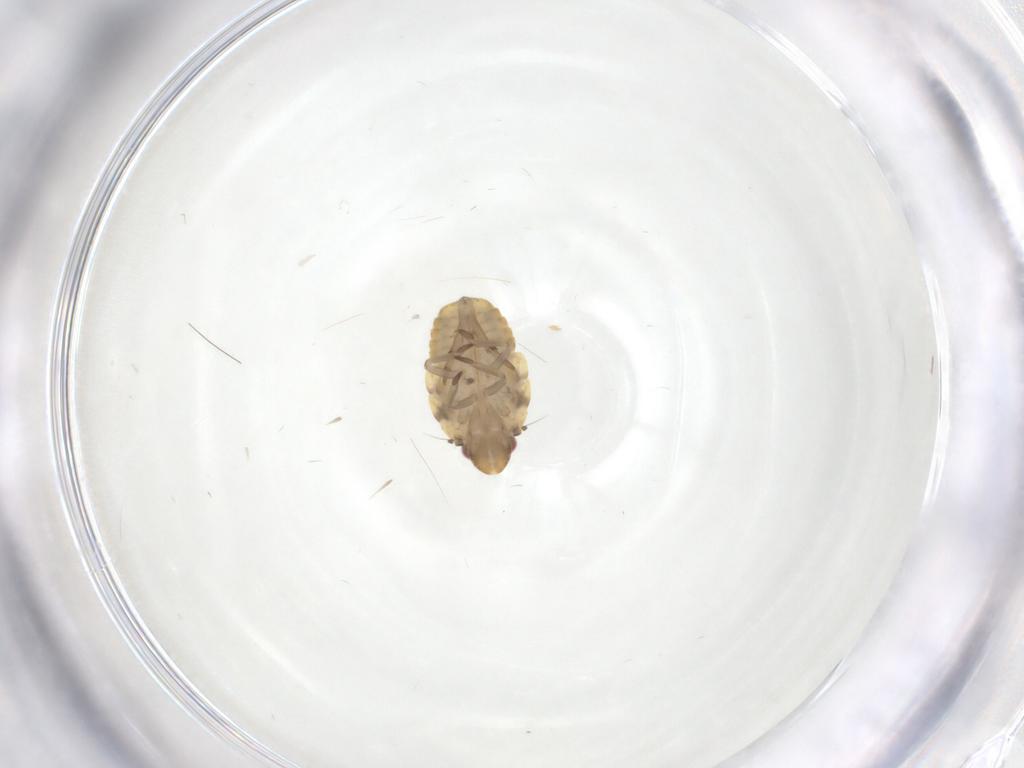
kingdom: Animalia
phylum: Arthropoda
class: Insecta
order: Hemiptera
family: Flatidae
